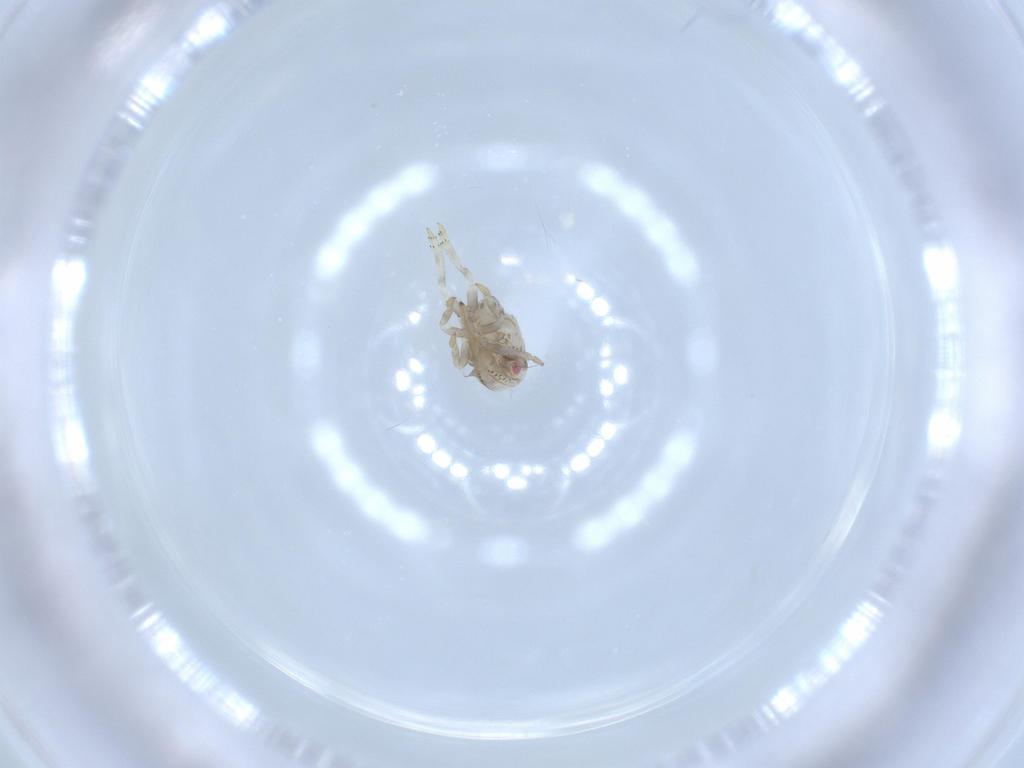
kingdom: Animalia
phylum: Arthropoda
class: Insecta
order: Hemiptera
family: Acanaloniidae
